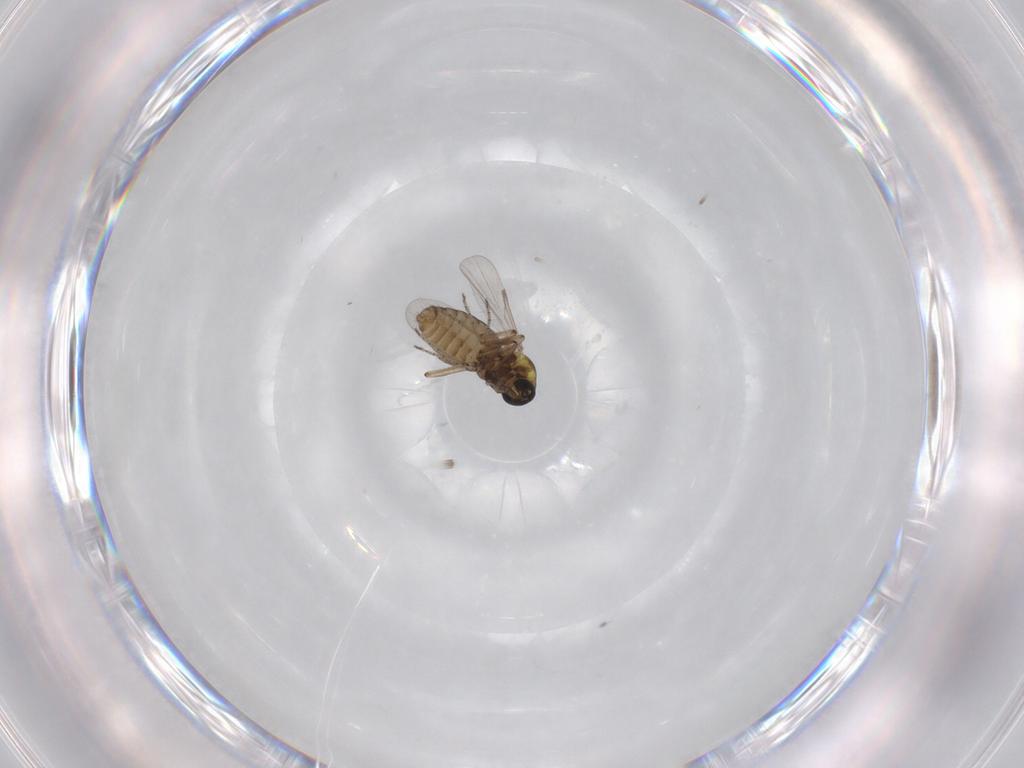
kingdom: Animalia
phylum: Arthropoda
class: Insecta
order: Diptera
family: Ceratopogonidae
